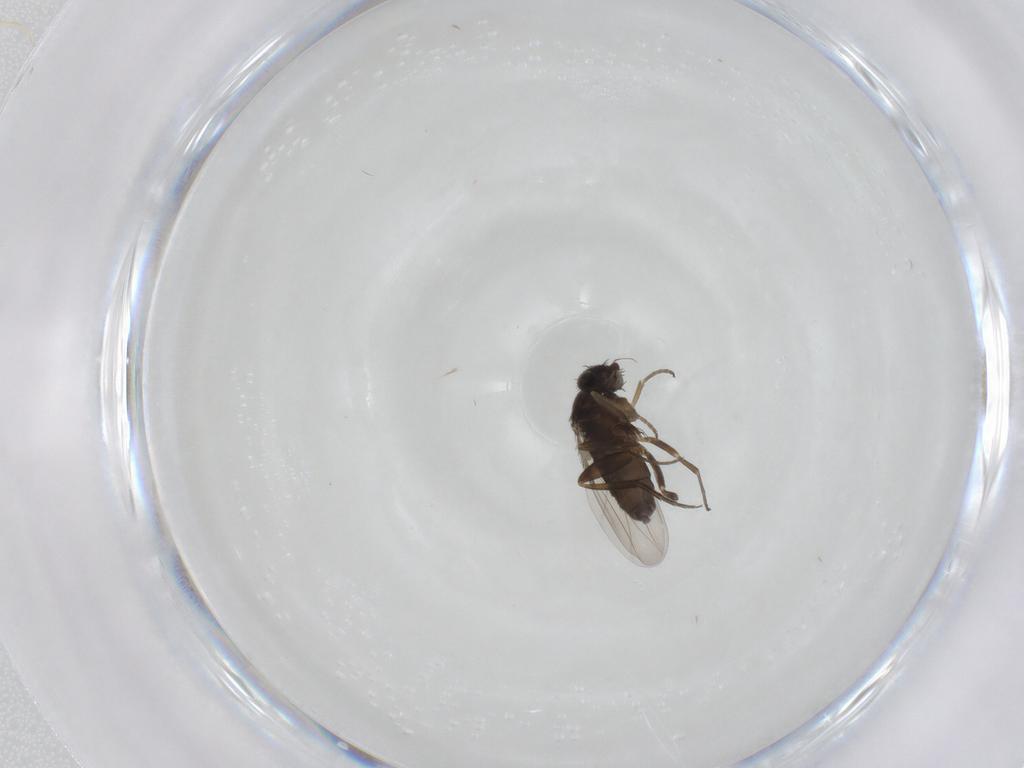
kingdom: Animalia
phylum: Arthropoda
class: Insecta
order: Diptera
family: Phoridae
